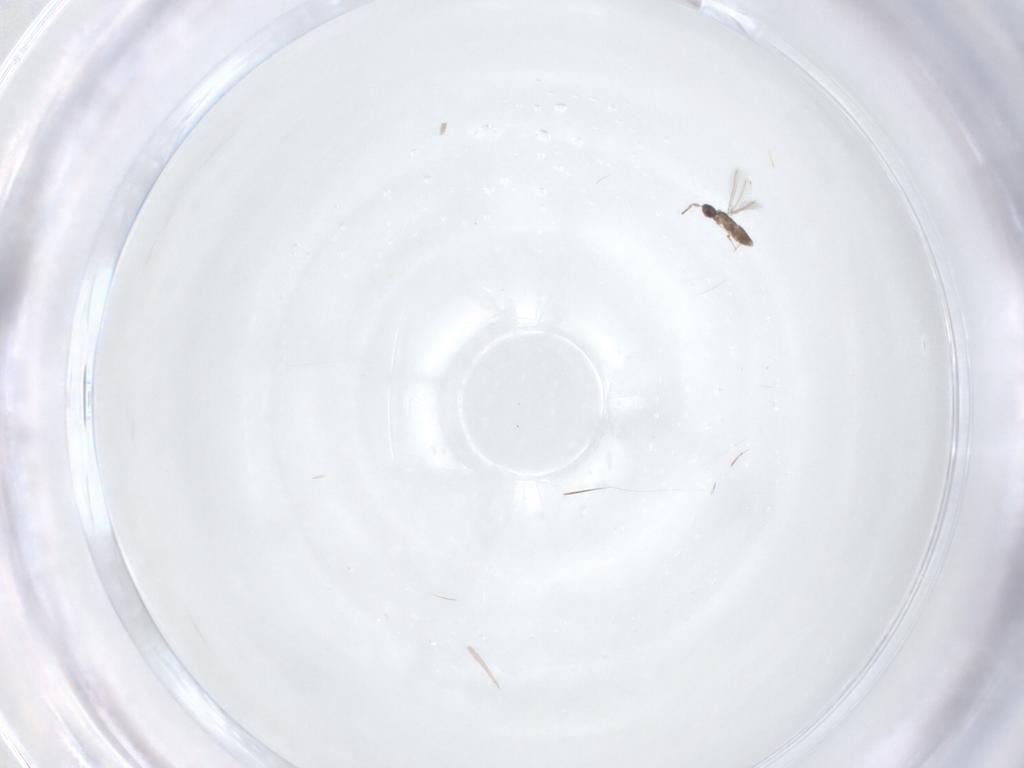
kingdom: Animalia
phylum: Arthropoda
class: Insecta
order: Hymenoptera
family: Mymaridae
